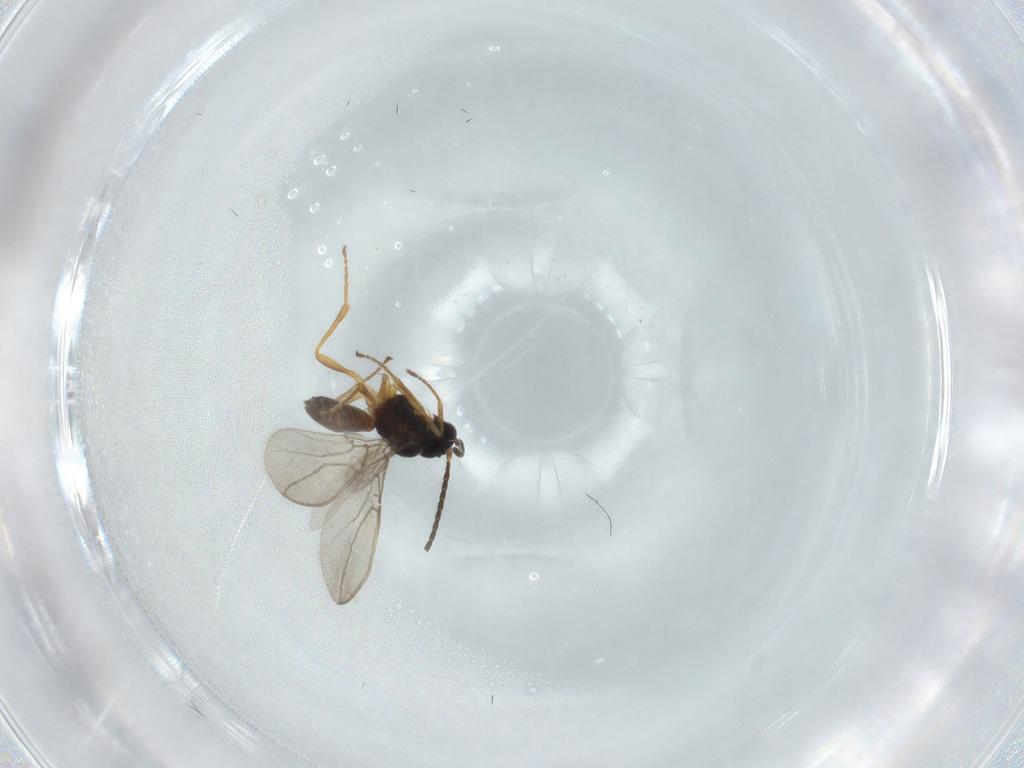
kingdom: Animalia
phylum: Arthropoda
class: Insecta
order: Hymenoptera
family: Braconidae
